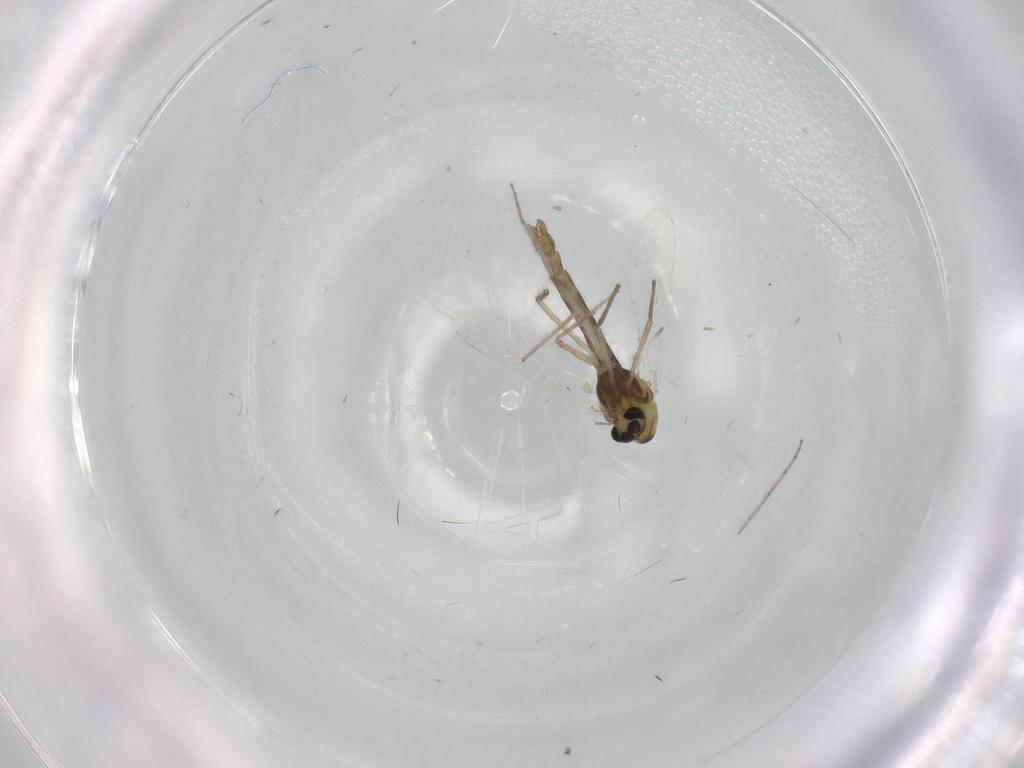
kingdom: Animalia
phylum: Arthropoda
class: Insecta
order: Diptera
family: Chironomidae
